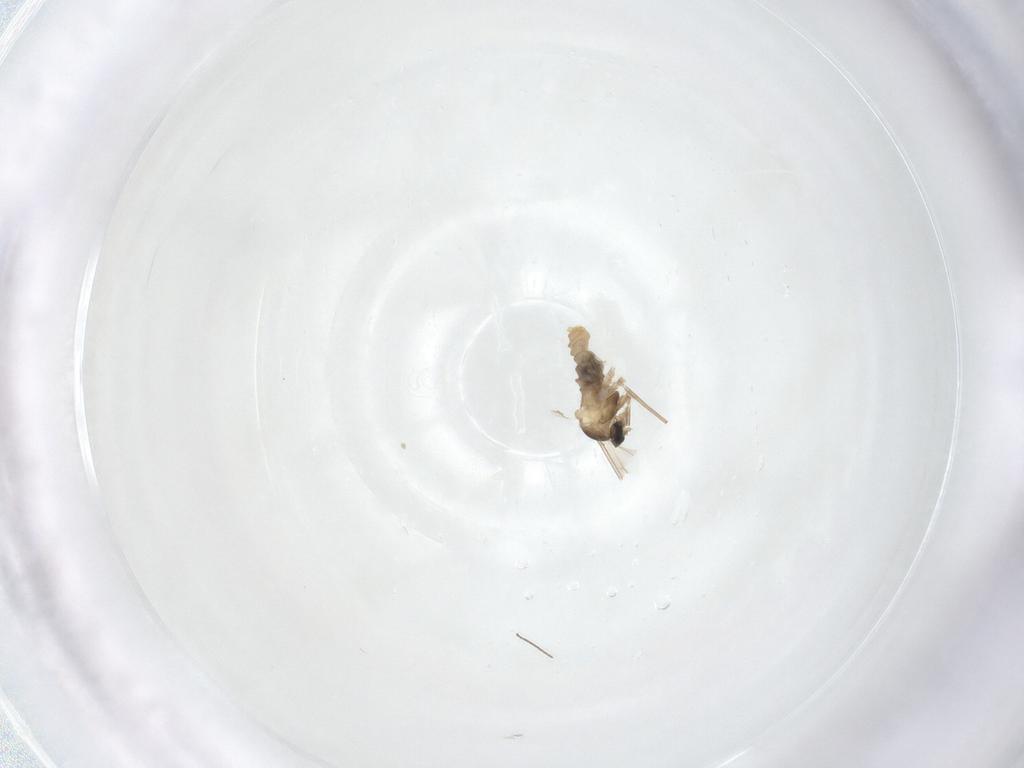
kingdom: Animalia
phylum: Arthropoda
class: Insecta
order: Diptera
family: Cecidomyiidae
